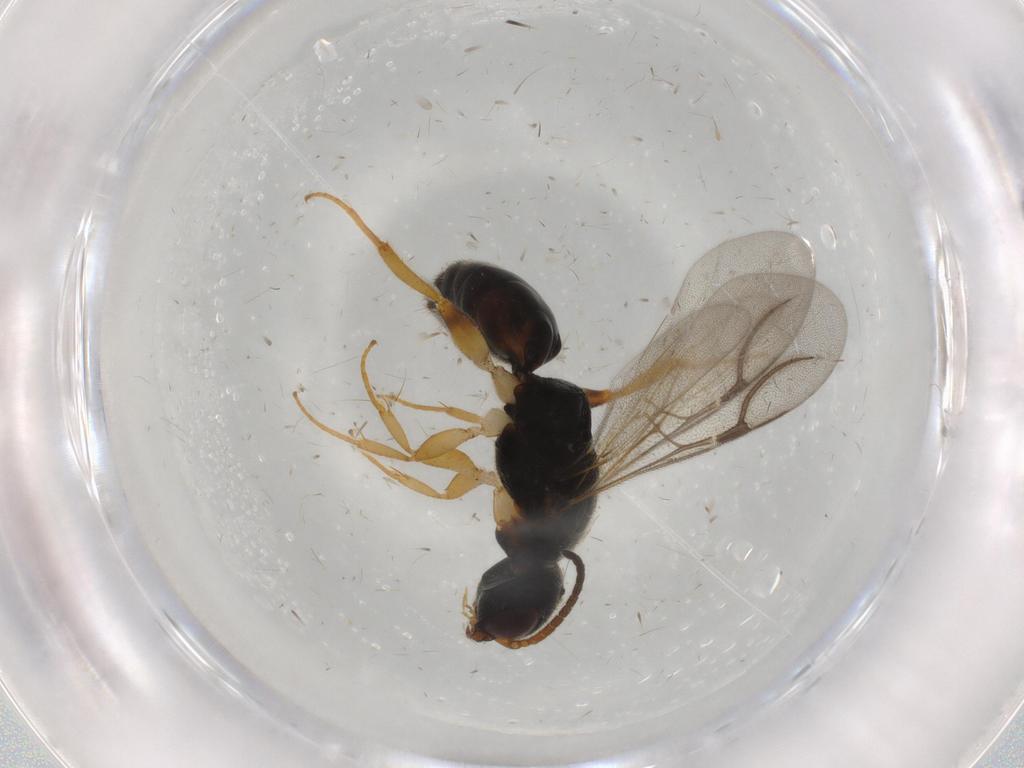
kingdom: Animalia
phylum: Arthropoda
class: Insecta
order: Hymenoptera
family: Bethylidae
